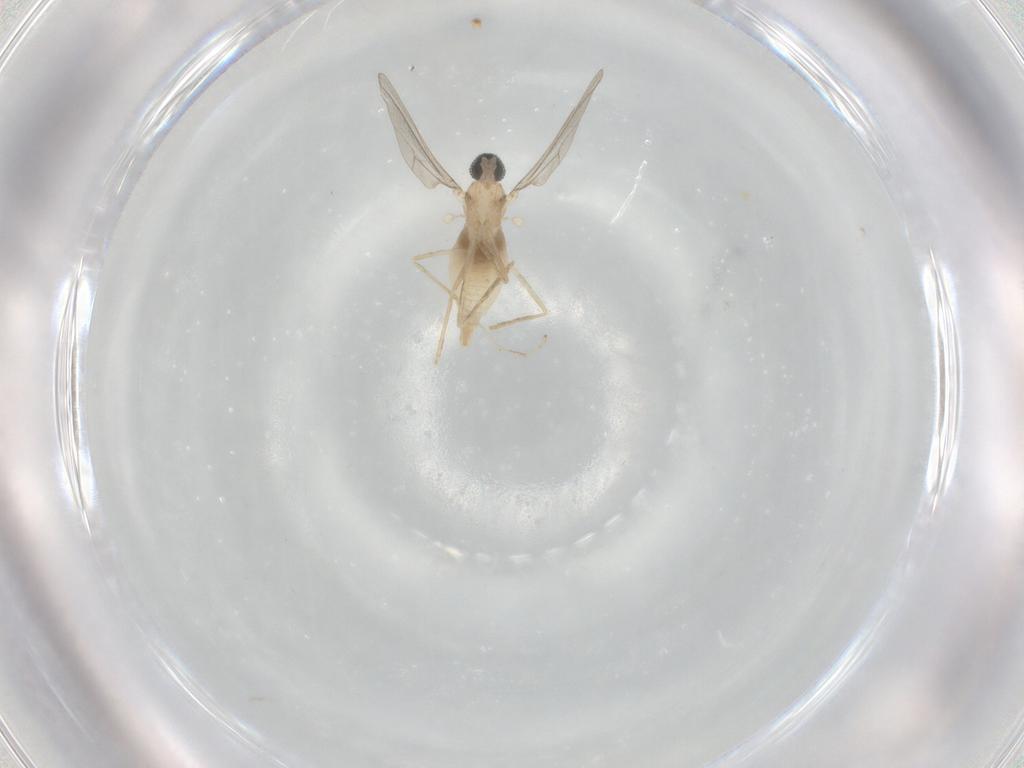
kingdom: Animalia
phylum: Arthropoda
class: Insecta
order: Diptera
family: Cecidomyiidae
